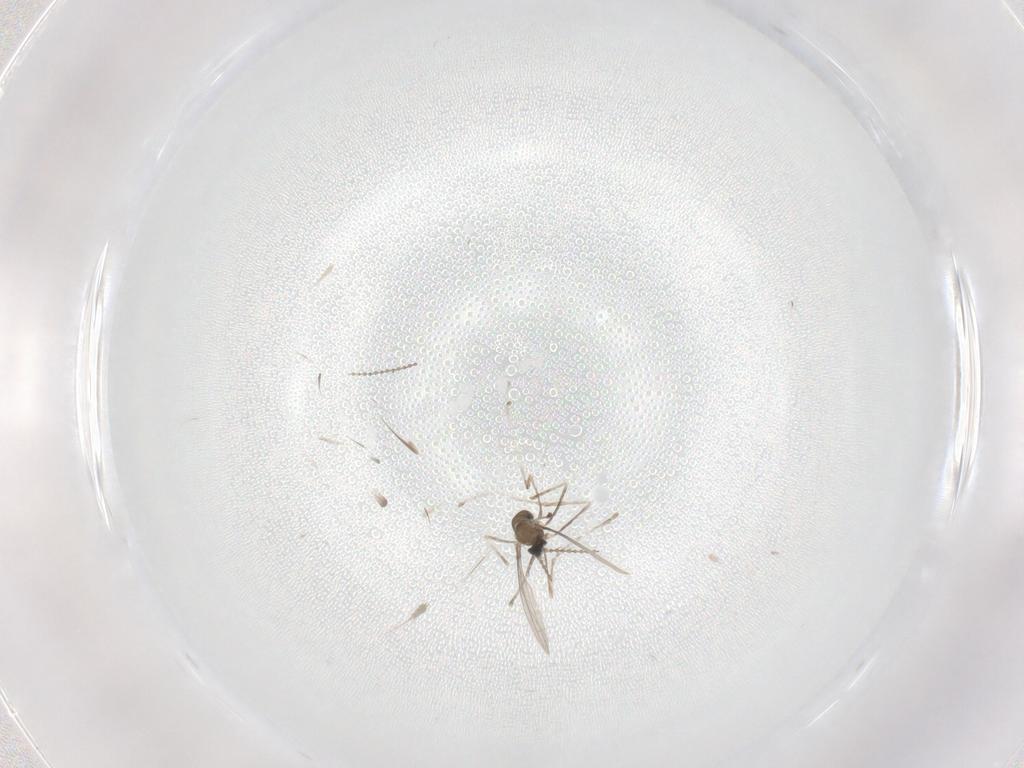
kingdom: Animalia
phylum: Arthropoda
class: Insecta
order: Diptera
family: Cecidomyiidae
